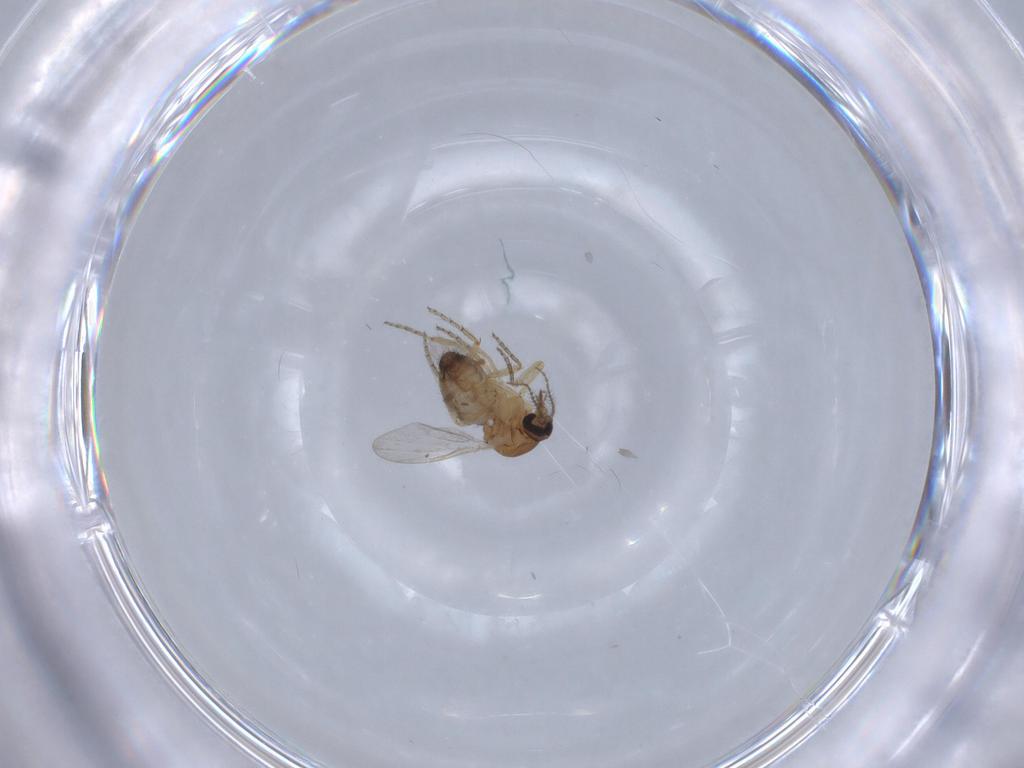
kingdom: Animalia
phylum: Arthropoda
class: Insecta
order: Diptera
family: Ceratopogonidae
